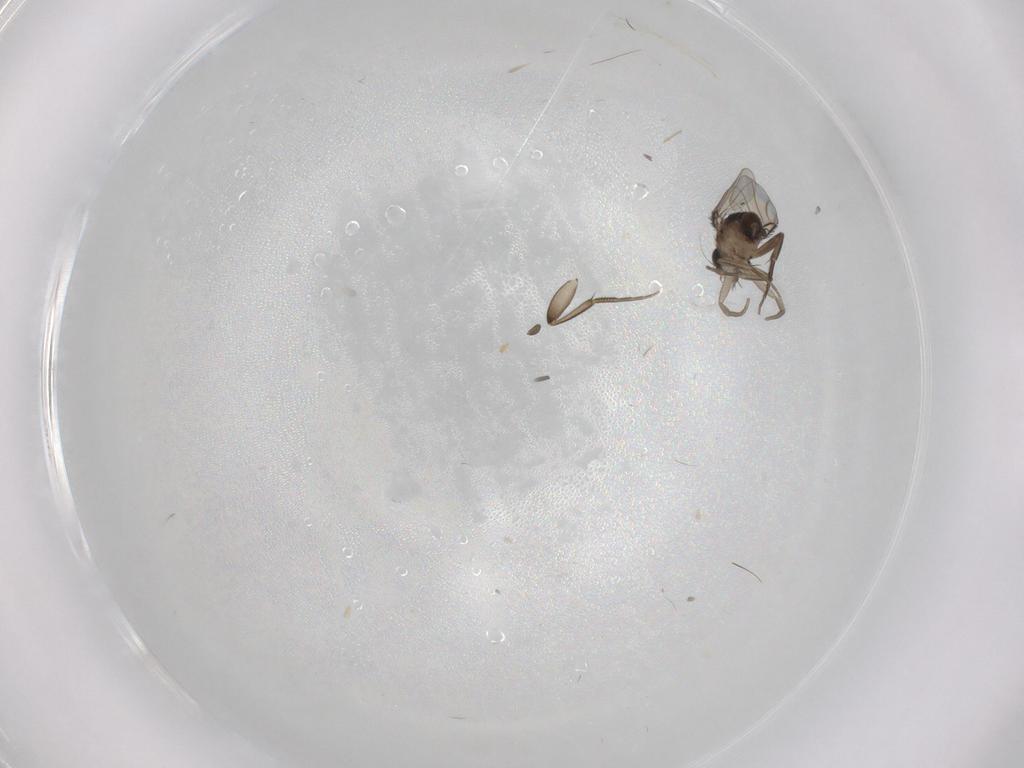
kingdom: Animalia
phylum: Arthropoda
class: Insecta
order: Diptera
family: Phoridae
